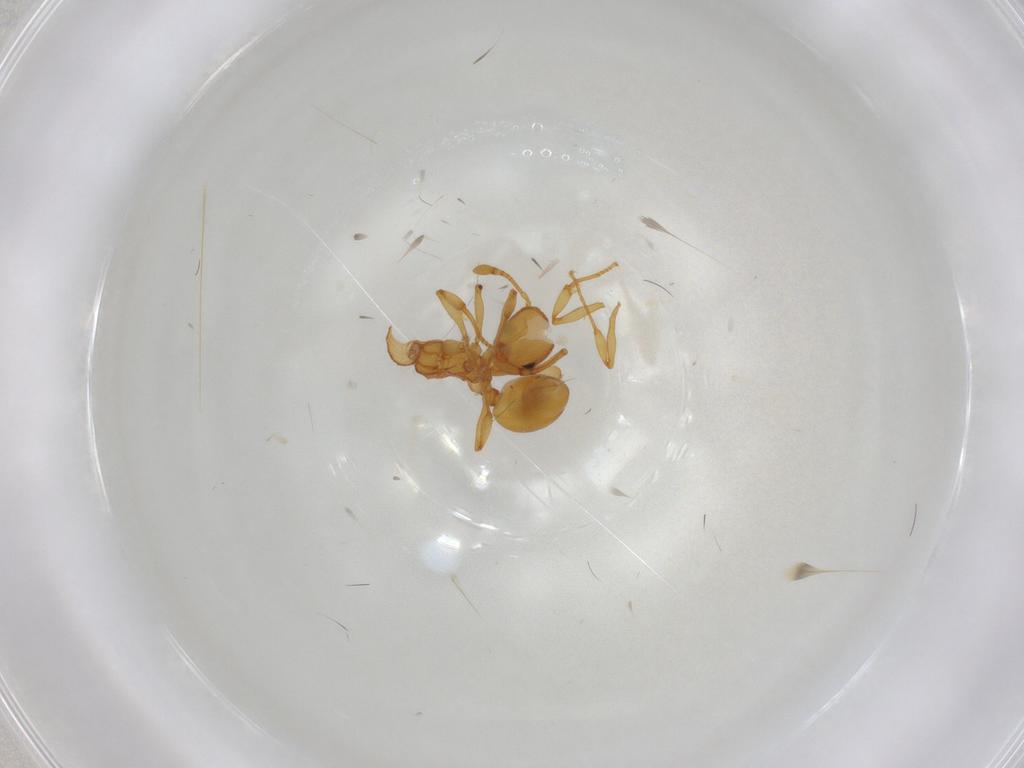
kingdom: Animalia
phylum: Arthropoda
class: Insecta
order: Hymenoptera
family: Formicidae
